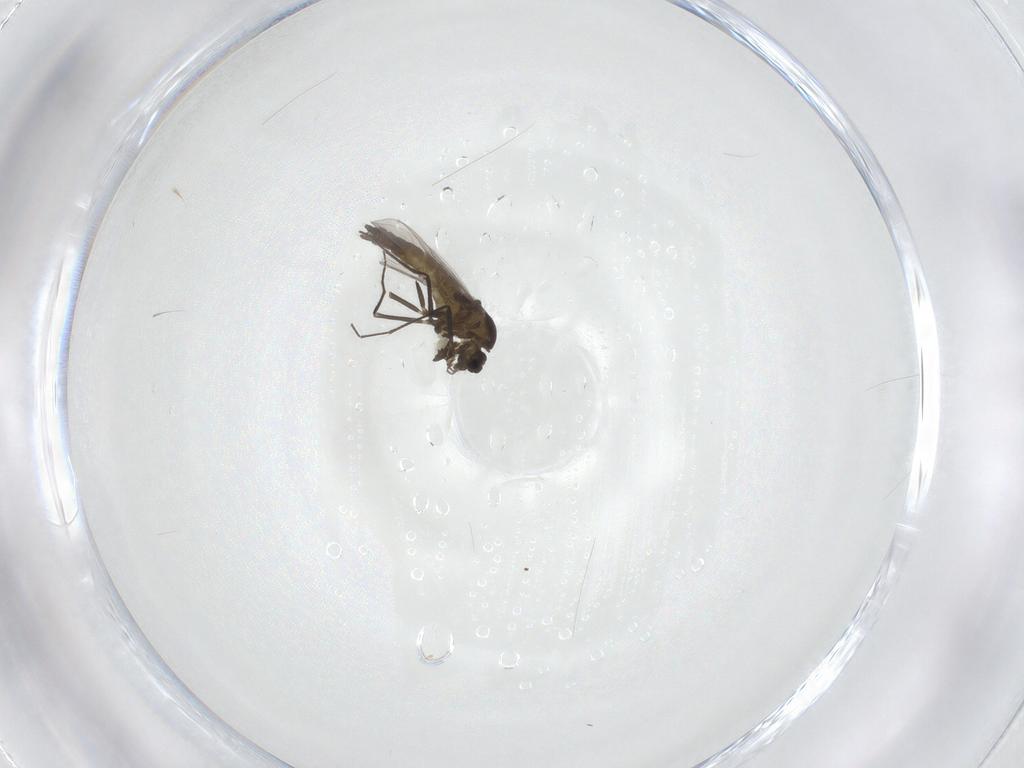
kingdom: Animalia
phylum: Arthropoda
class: Insecta
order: Diptera
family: Chironomidae
